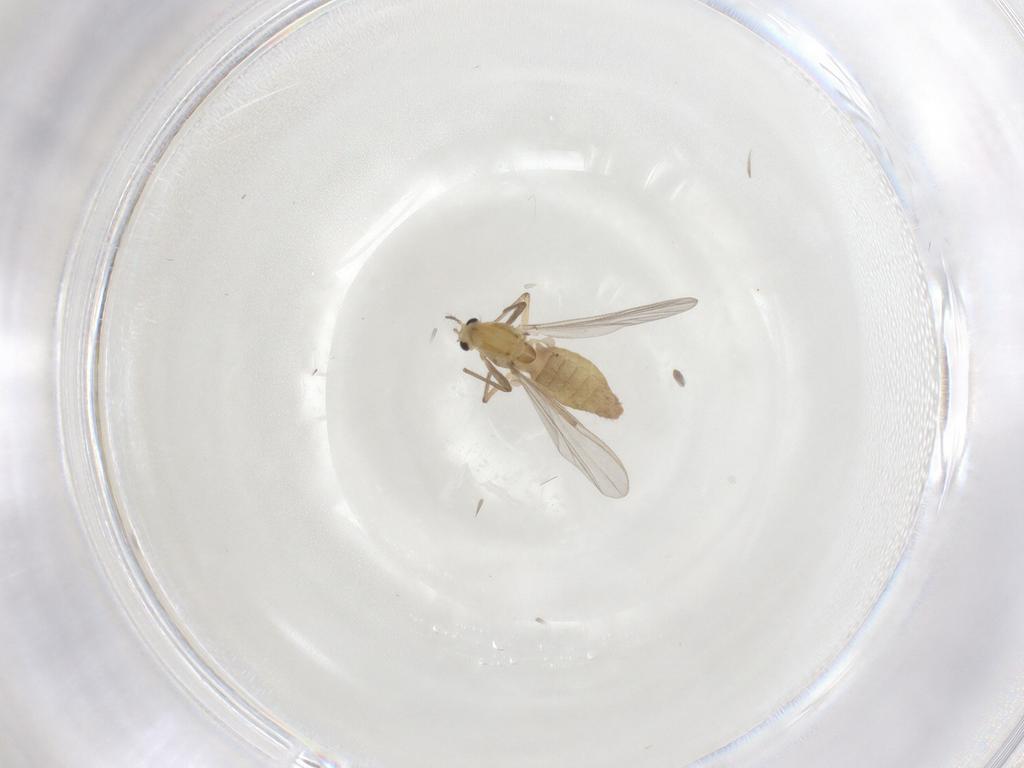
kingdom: Animalia
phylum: Arthropoda
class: Insecta
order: Diptera
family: Chironomidae
